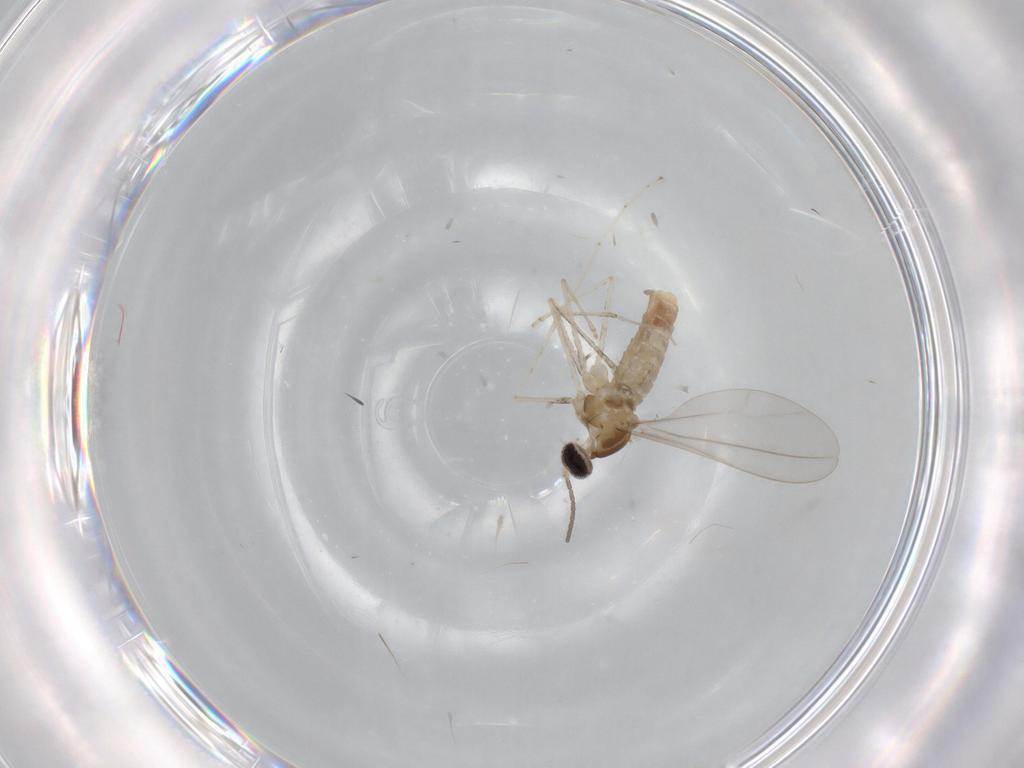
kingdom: Animalia
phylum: Arthropoda
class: Insecta
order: Diptera
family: Cecidomyiidae
